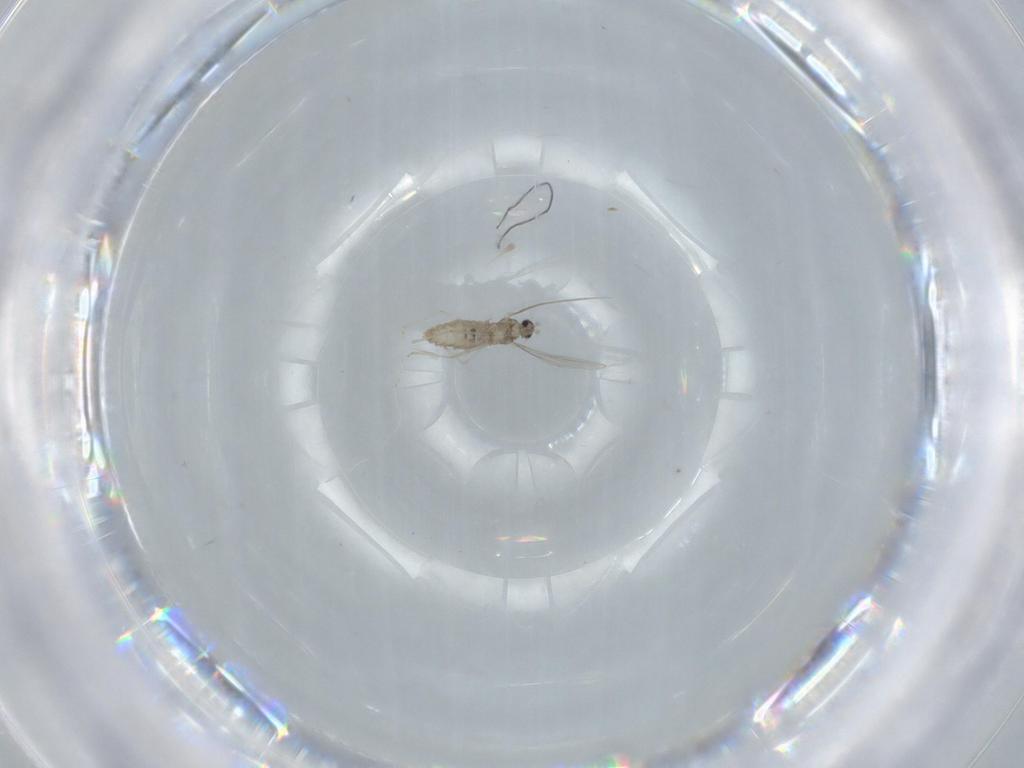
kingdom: Animalia
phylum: Arthropoda
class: Insecta
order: Diptera
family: Cecidomyiidae
